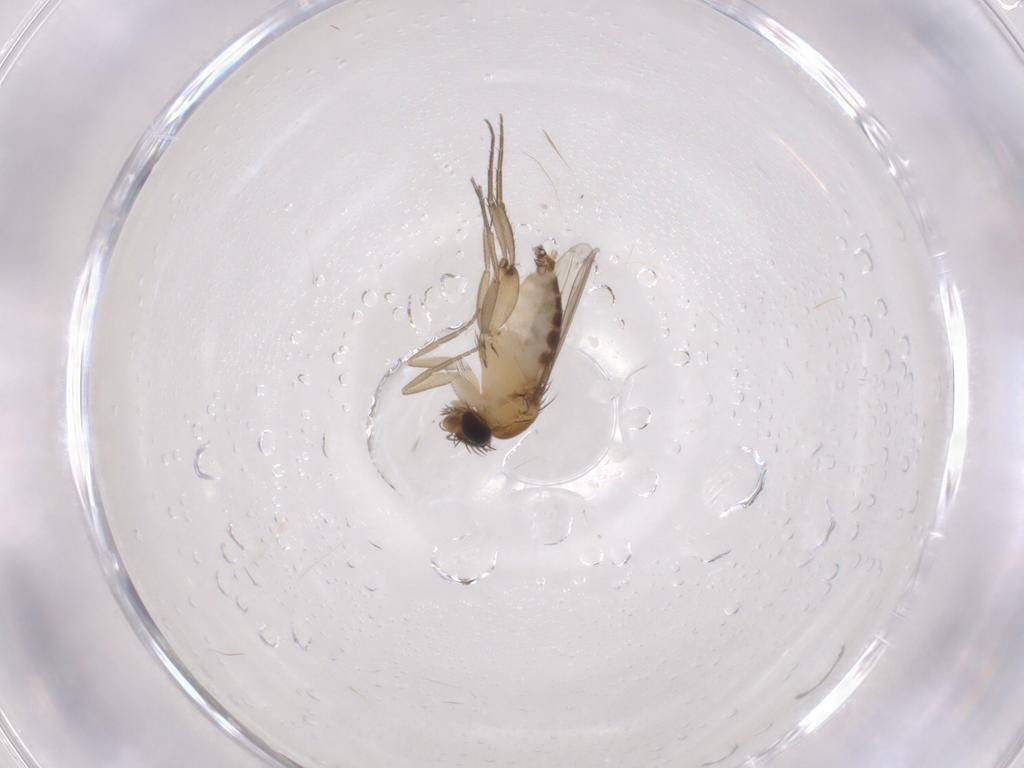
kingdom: Animalia
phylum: Arthropoda
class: Insecta
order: Diptera
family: Phoridae
